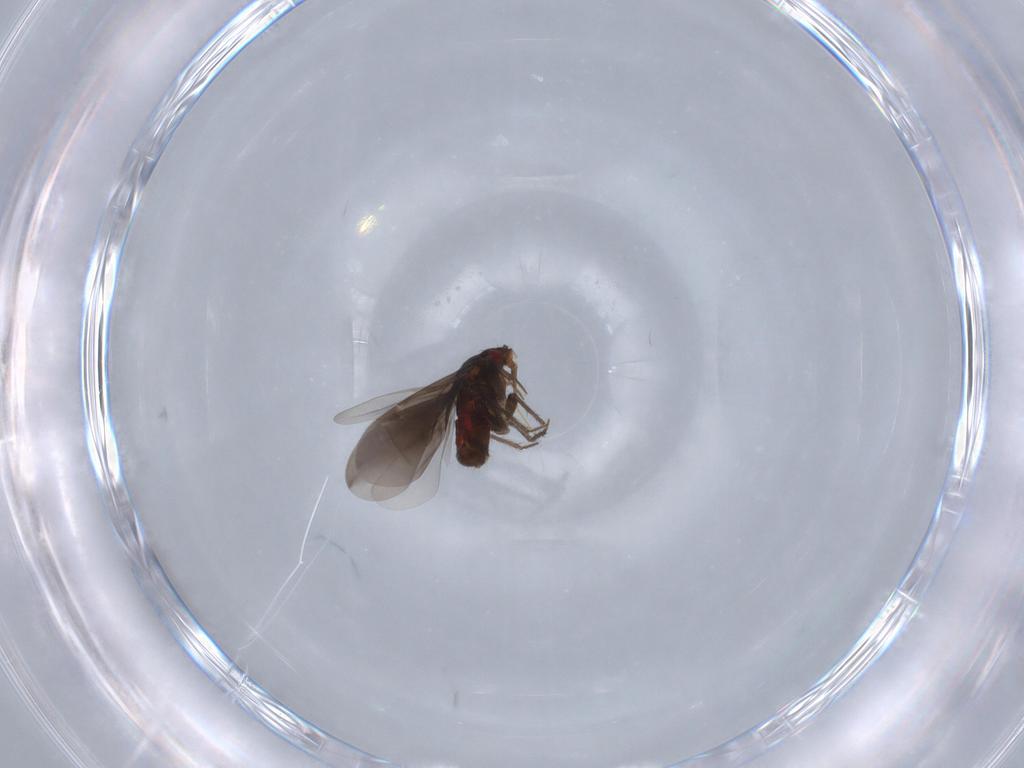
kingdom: Animalia
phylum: Arthropoda
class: Insecta
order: Hemiptera
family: Ceratocombidae
